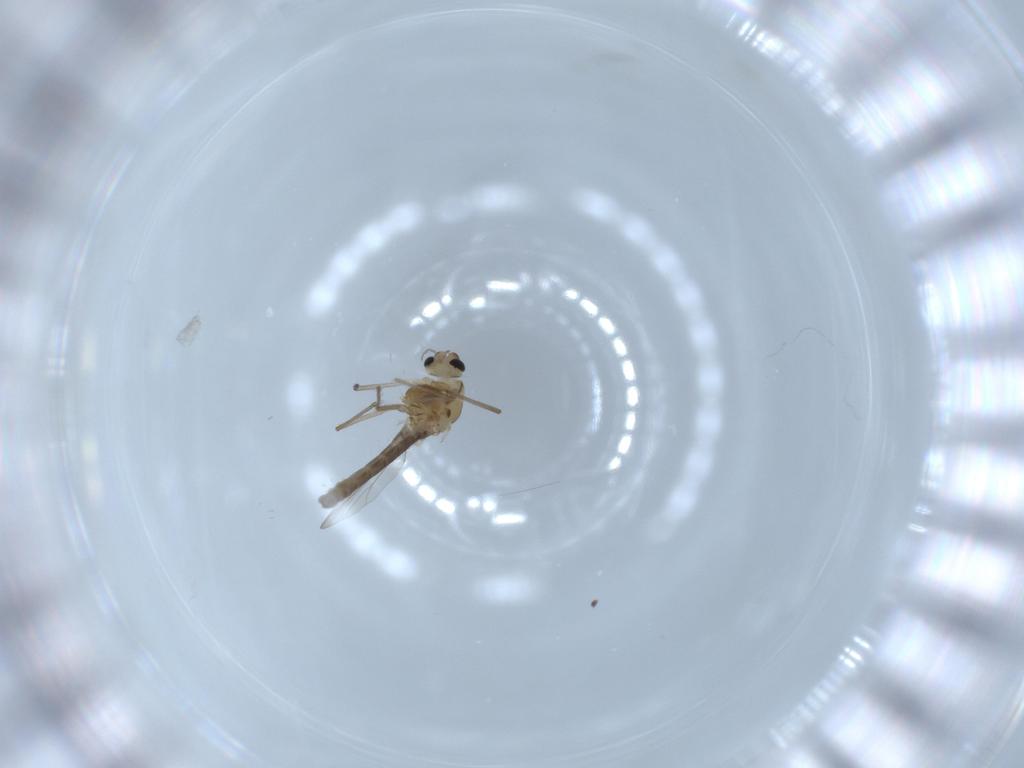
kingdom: Animalia
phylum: Arthropoda
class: Insecta
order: Diptera
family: Chironomidae
